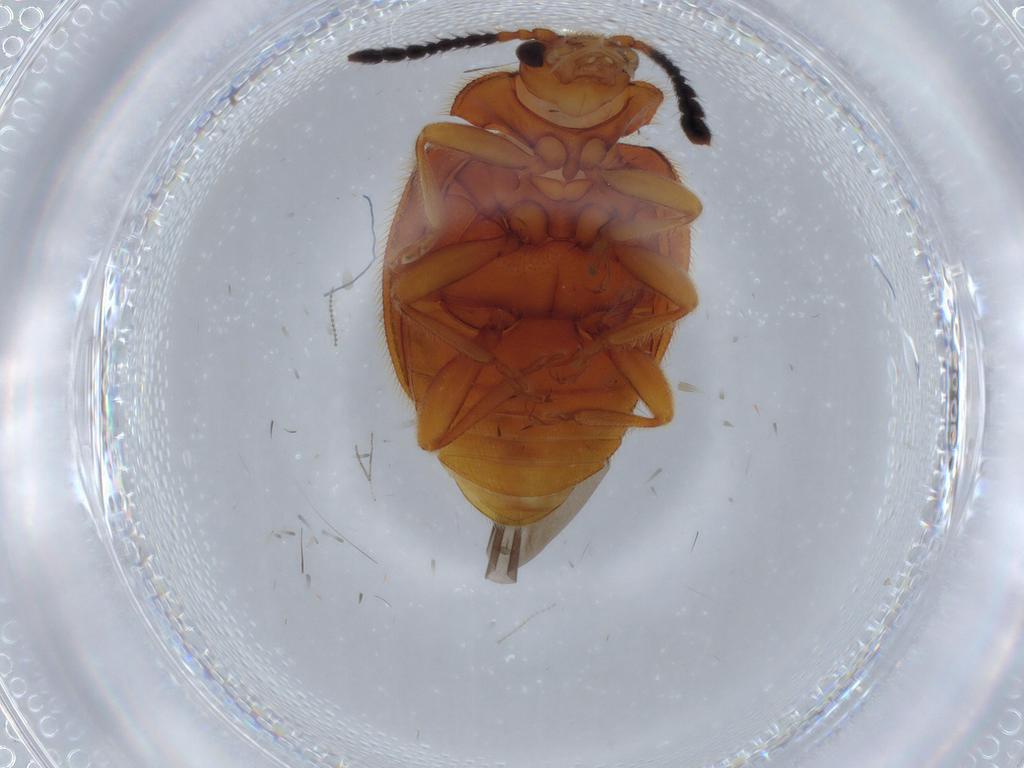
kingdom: Animalia
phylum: Arthropoda
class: Insecta
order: Coleoptera
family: Endomychidae
